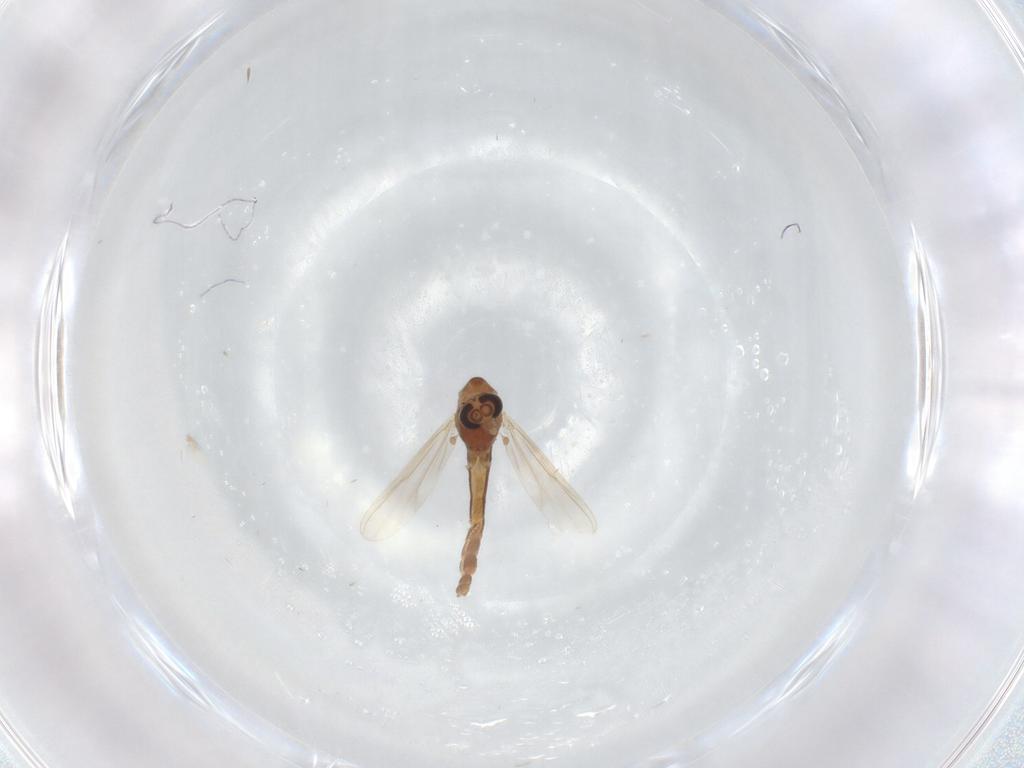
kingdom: Animalia
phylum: Arthropoda
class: Insecta
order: Diptera
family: Chironomidae
